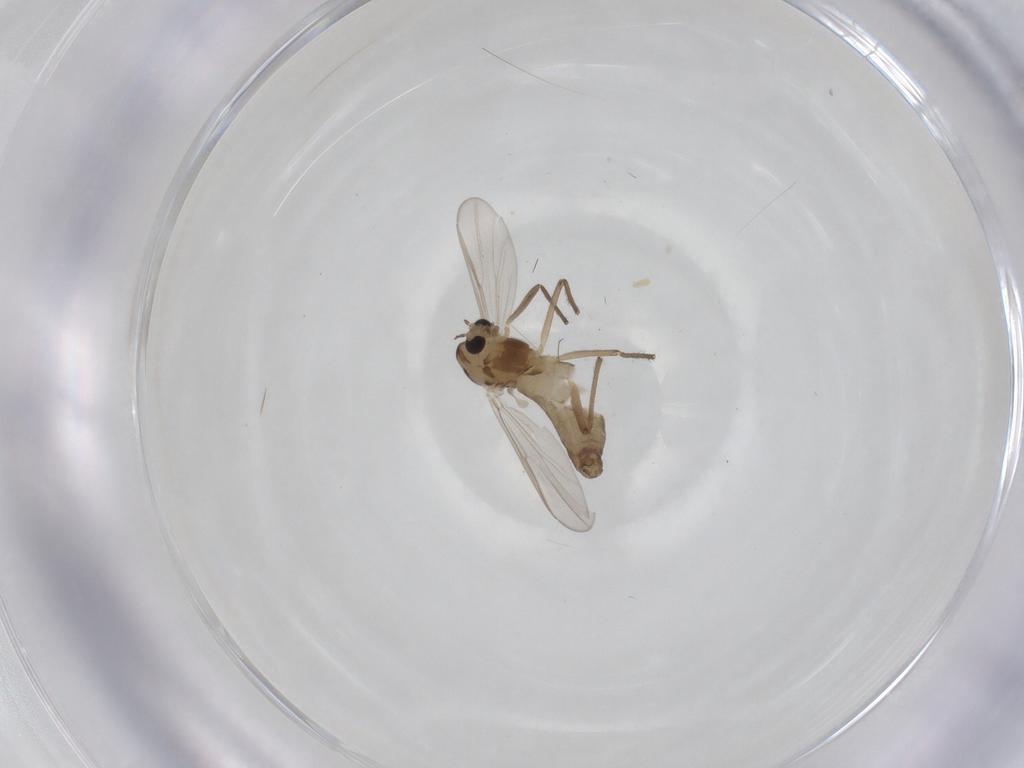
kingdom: Animalia
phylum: Arthropoda
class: Insecta
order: Diptera
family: Chironomidae
